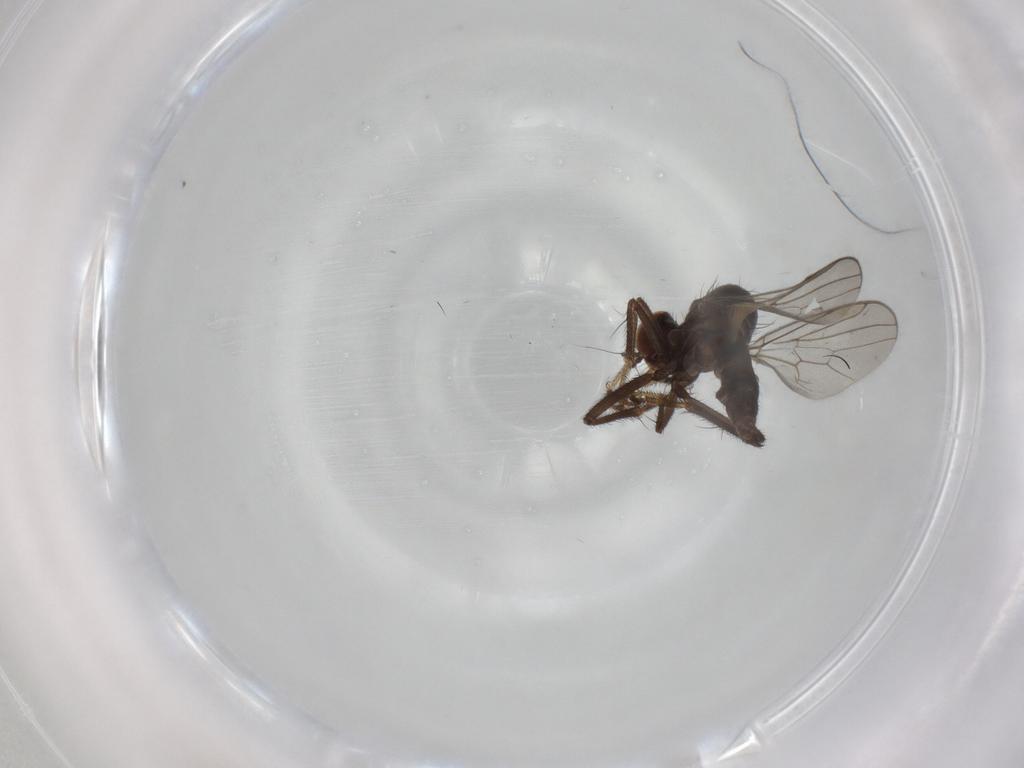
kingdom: Animalia
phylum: Arthropoda
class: Insecta
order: Diptera
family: Hybotidae
